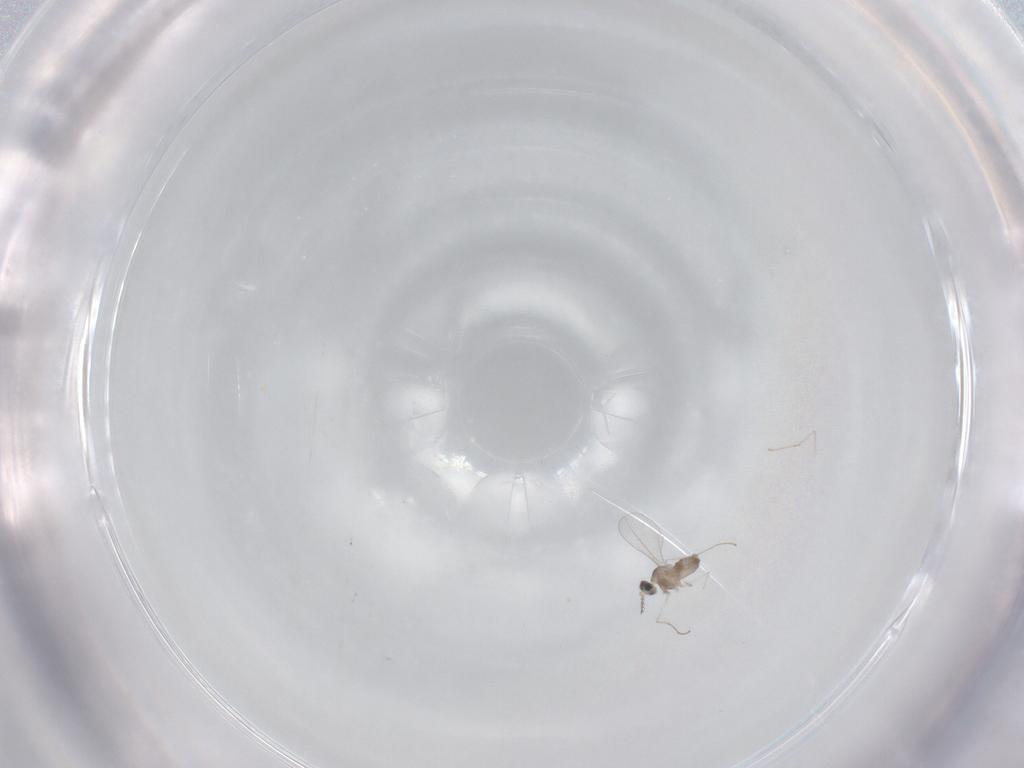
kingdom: Animalia
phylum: Arthropoda
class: Insecta
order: Diptera
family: Cecidomyiidae
